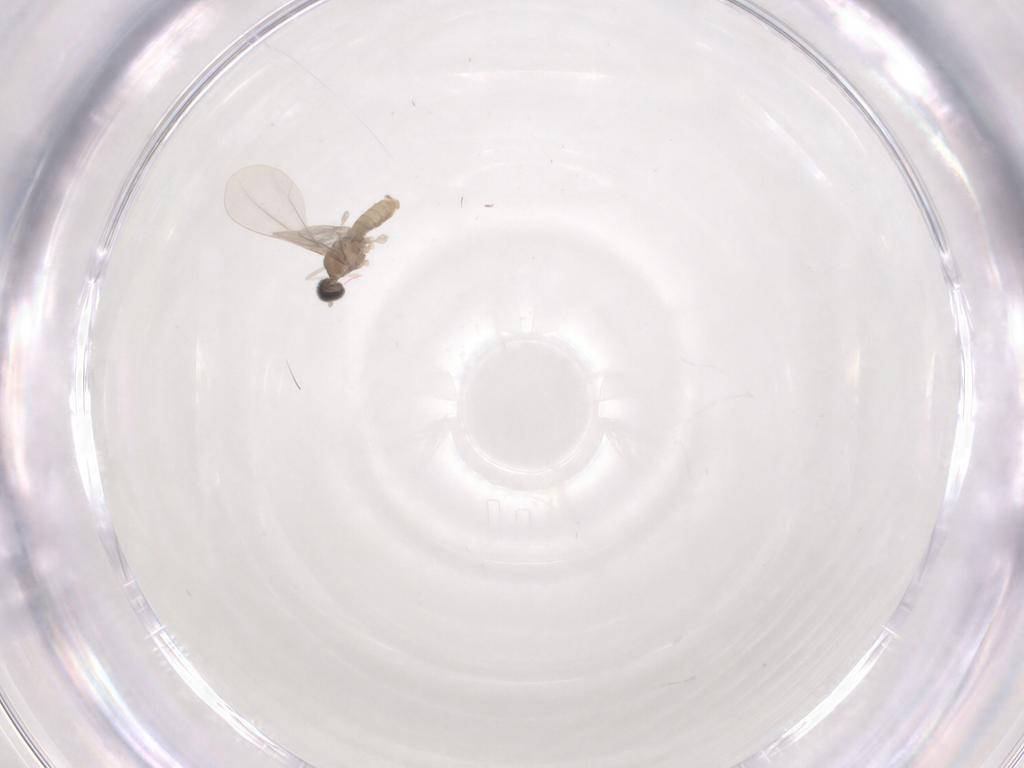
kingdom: Animalia
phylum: Arthropoda
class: Insecta
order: Diptera
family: Cecidomyiidae
